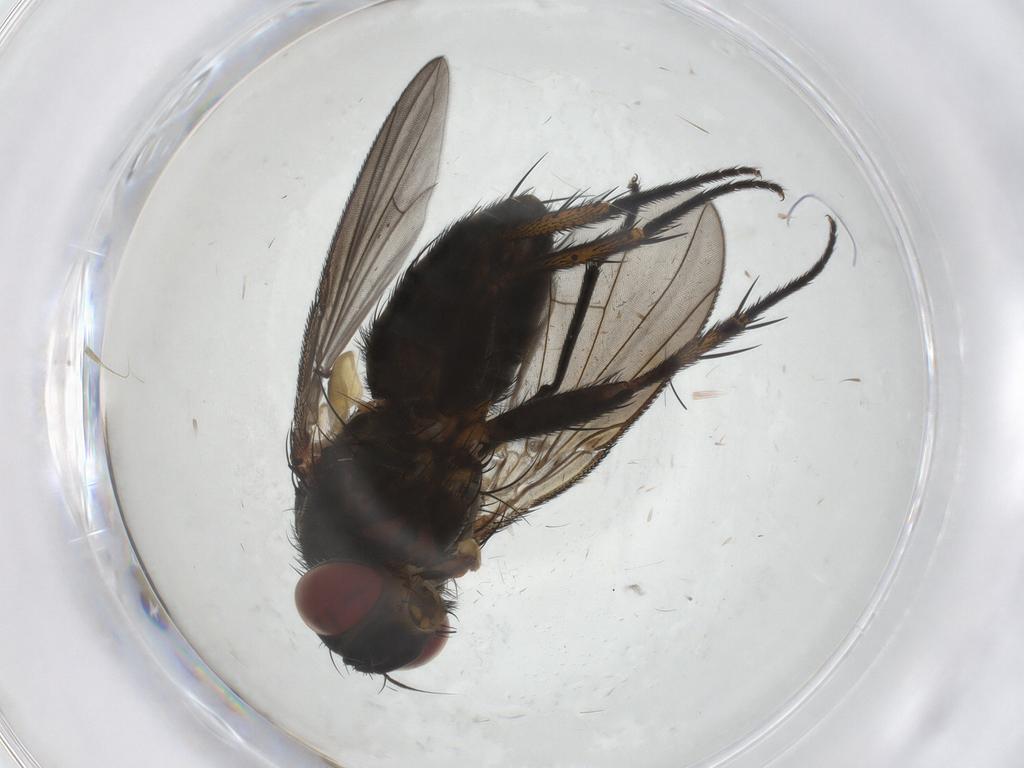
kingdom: Animalia
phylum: Arthropoda
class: Insecta
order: Diptera
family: Muscidae
